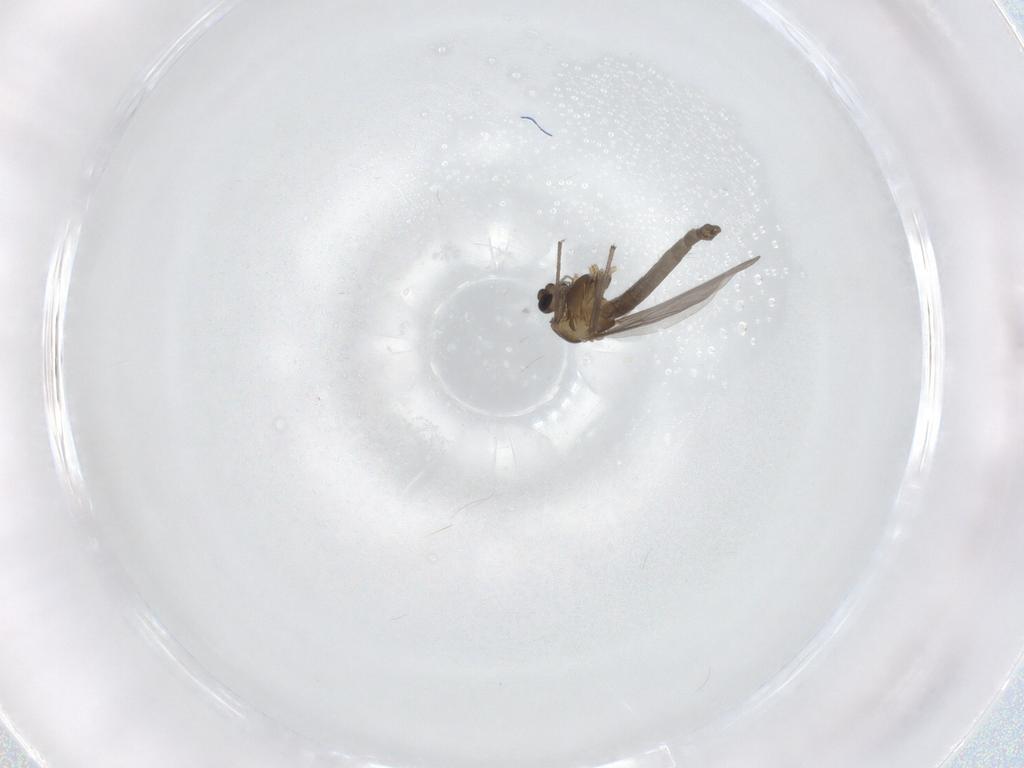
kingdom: Animalia
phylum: Arthropoda
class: Insecta
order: Diptera
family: Chironomidae
